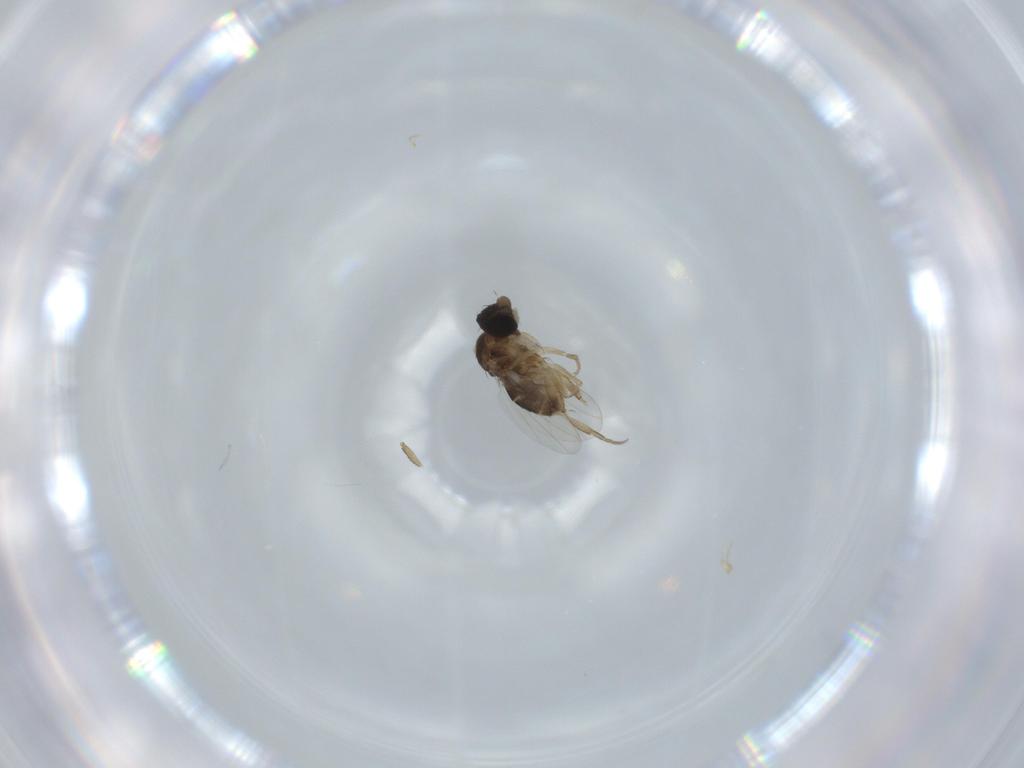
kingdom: Animalia
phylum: Arthropoda
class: Insecta
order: Diptera
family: Phoridae
